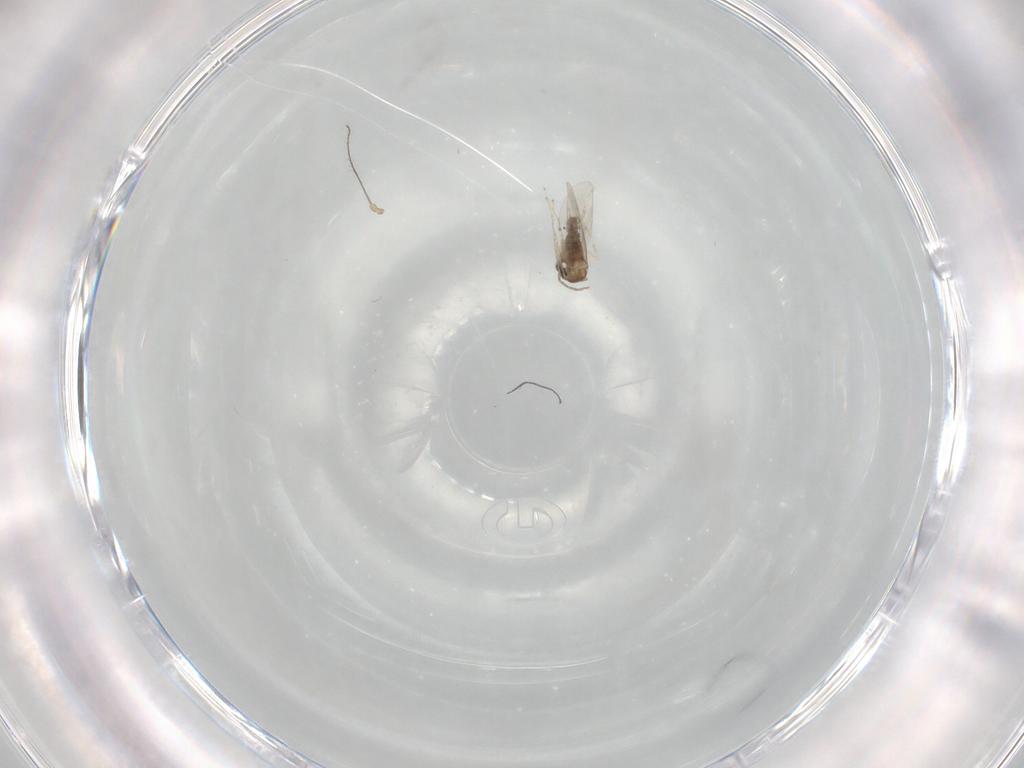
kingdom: Animalia
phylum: Arthropoda
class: Insecta
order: Diptera
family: Cecidomyiidae
